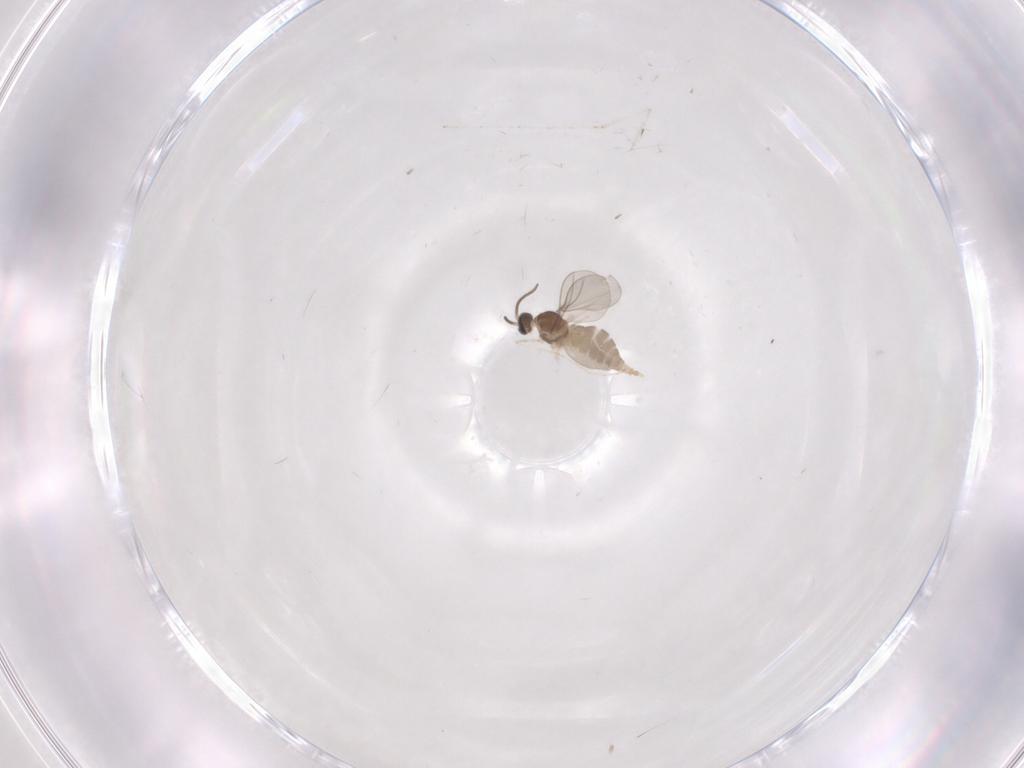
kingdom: Animalia
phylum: Arthropoda
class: Insecta
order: Diptera
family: Cecidomyiidae
